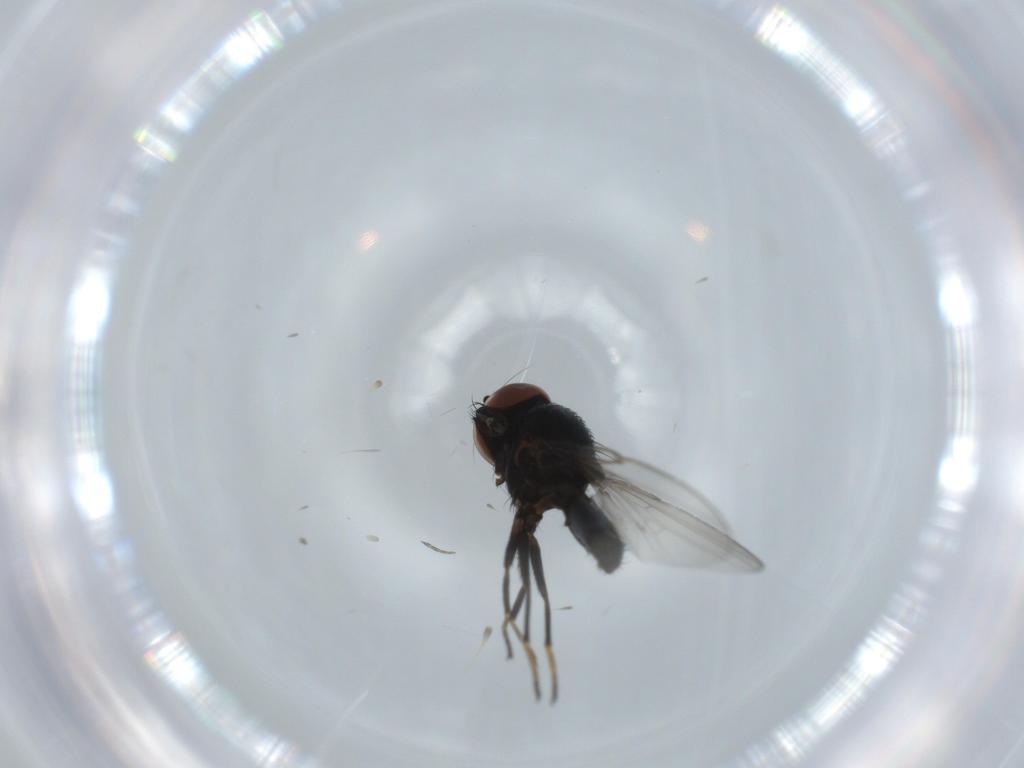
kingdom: Animalia
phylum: Arthropoda
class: Insecta
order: Diptera
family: Milichiidae
